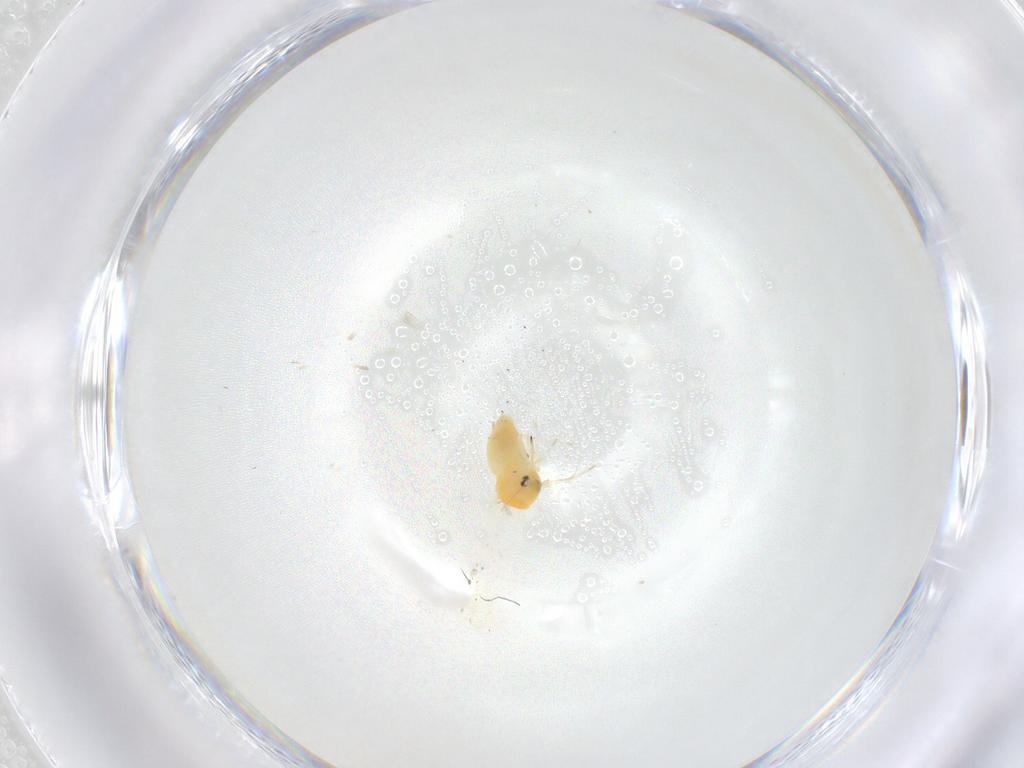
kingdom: Animalia
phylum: Arthropoda
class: Insecta
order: Hemiptera
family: Aleyrodidae
